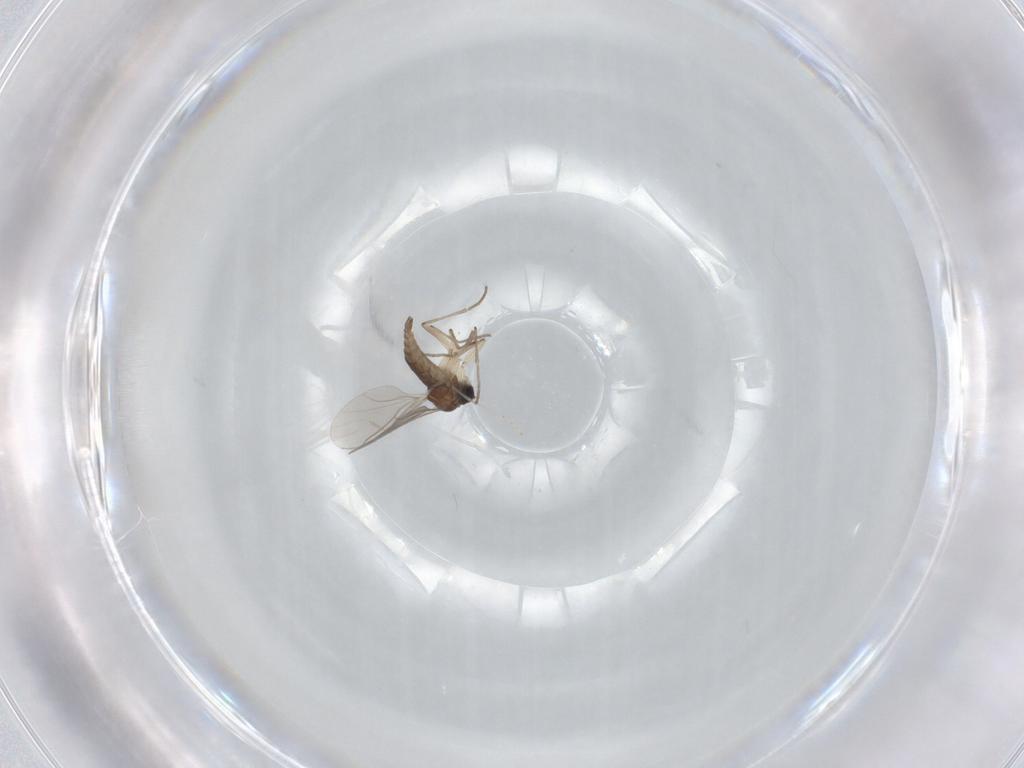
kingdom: Animalia
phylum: Arthropoda
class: Insecta
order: Diptera
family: Sciaridae
